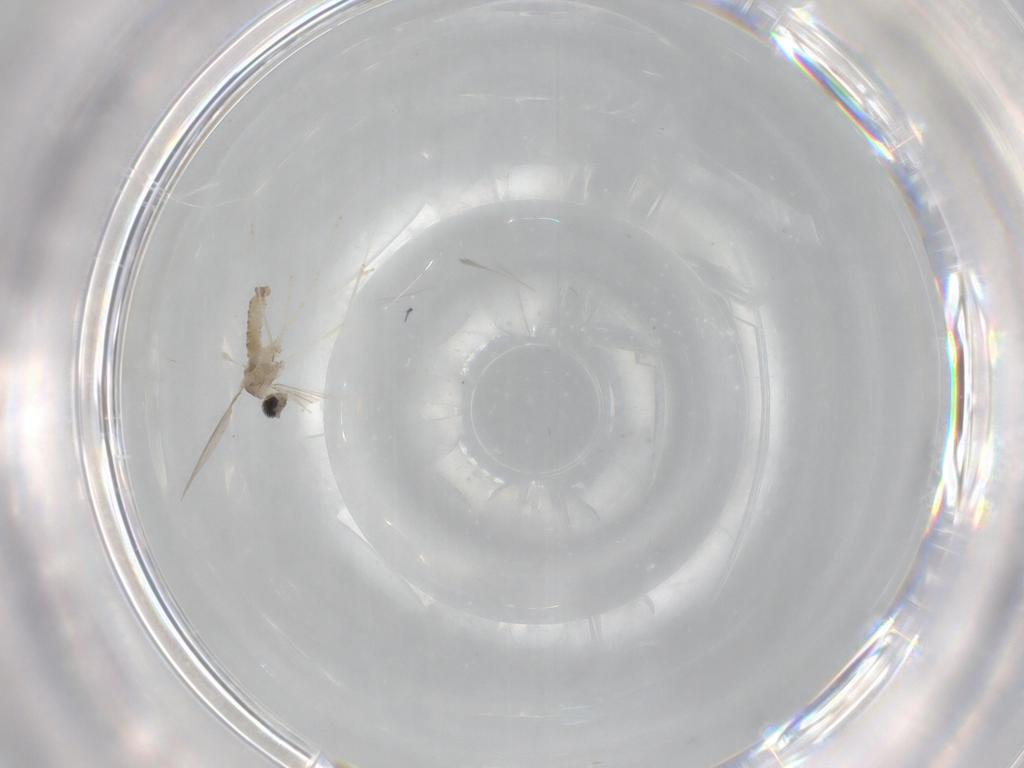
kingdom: Animalia
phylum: Arthropoda
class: Insecta
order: Diptera
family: Cecidomyiidae
